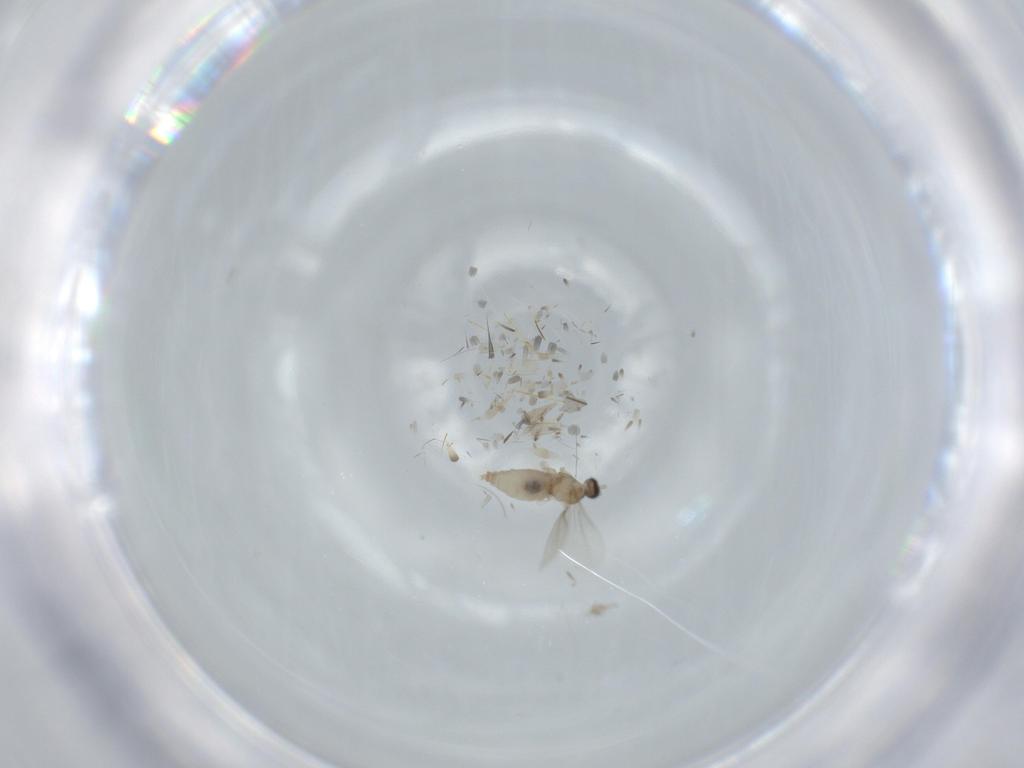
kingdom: Animalia
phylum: Arthropoda
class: Insecta
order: Diptera
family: Cecidomyiidae
